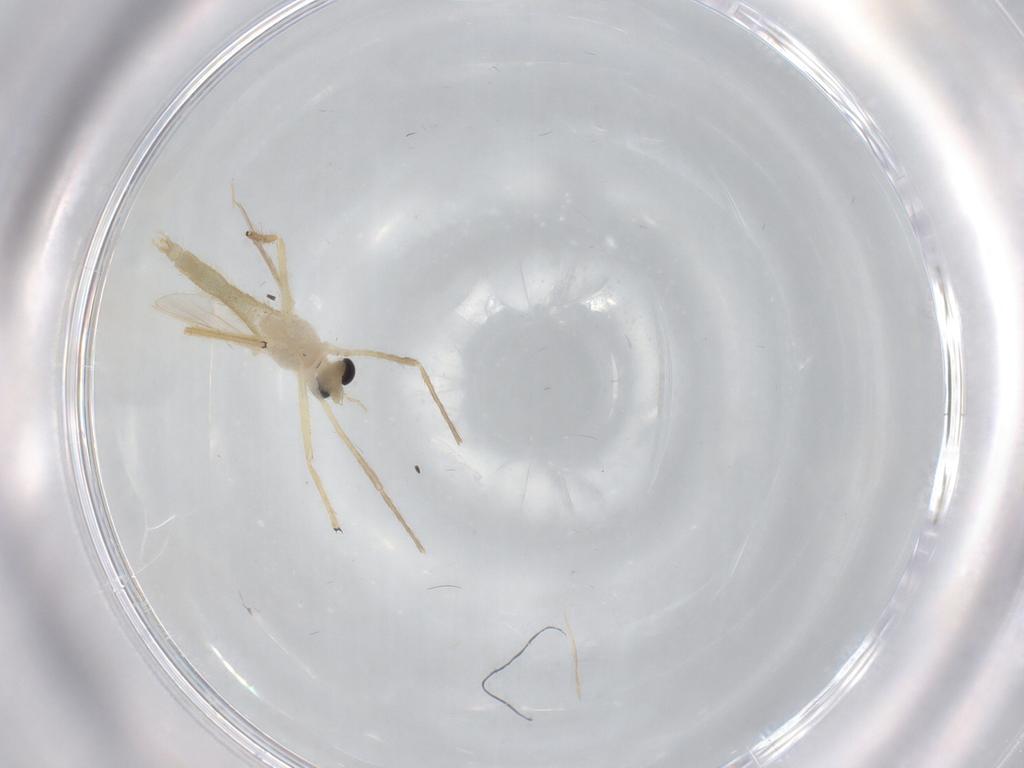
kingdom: Animalia
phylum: Arthropoda
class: Insecta
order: Diptera
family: Chironomidae
